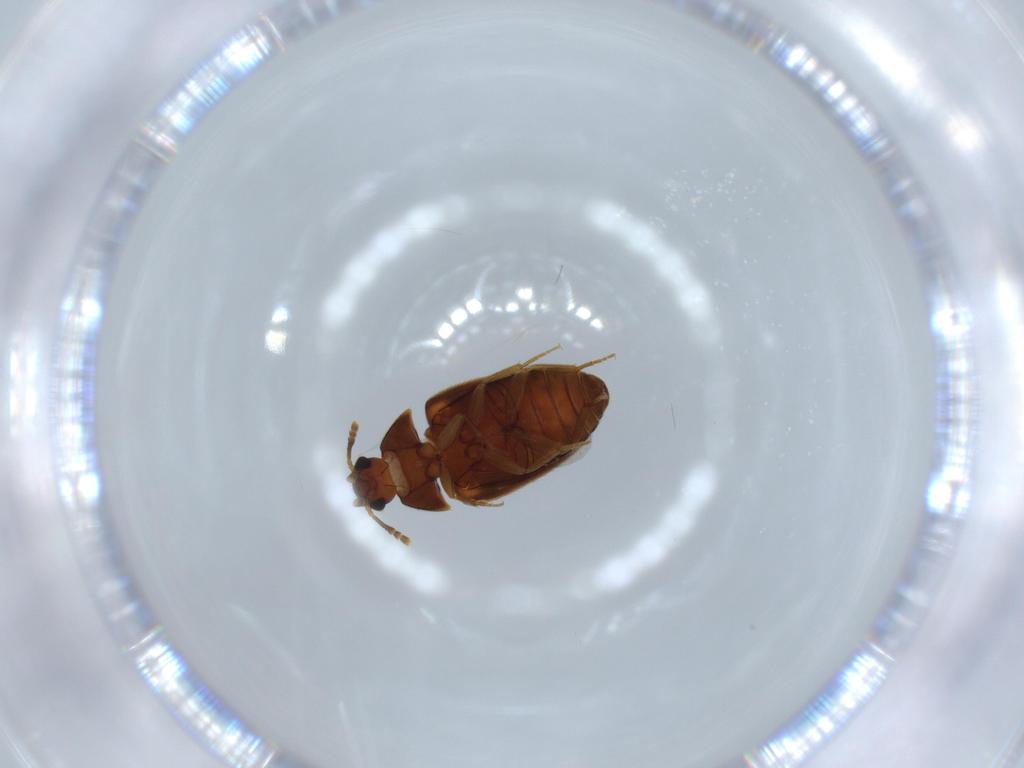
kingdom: Animalia
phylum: Arthropoda
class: Insecta
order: Coleoptera
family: Mycetophagidae
